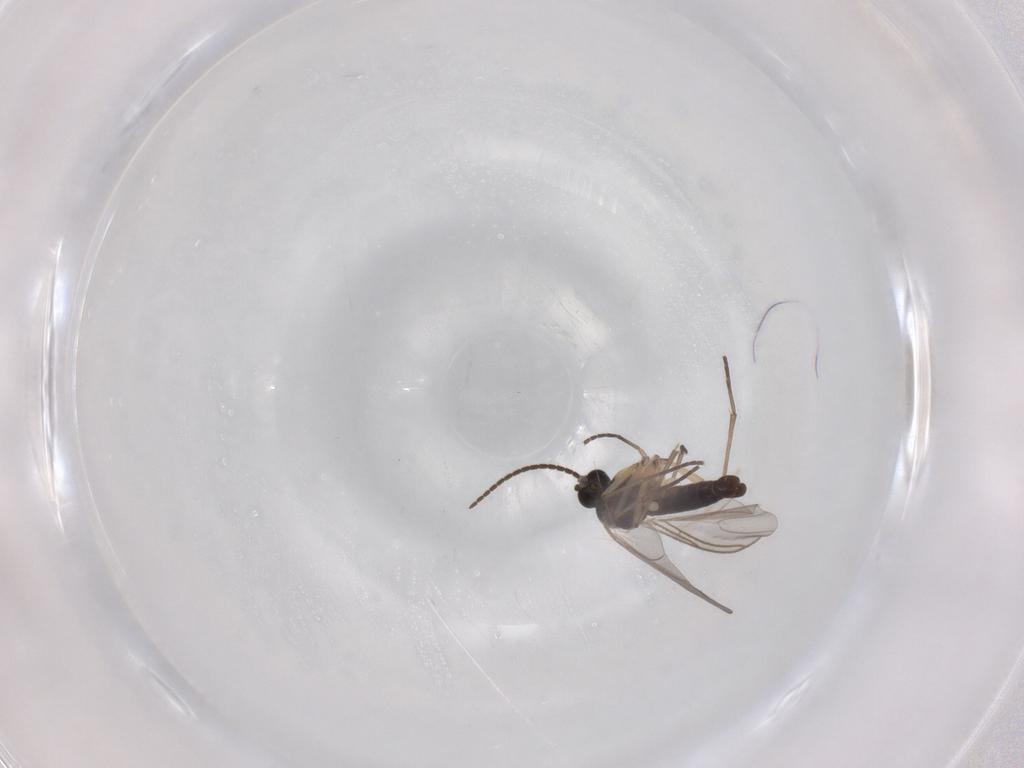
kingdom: Animalia
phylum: Arthropoda
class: Insecta
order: Diptera
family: Sciaridae
